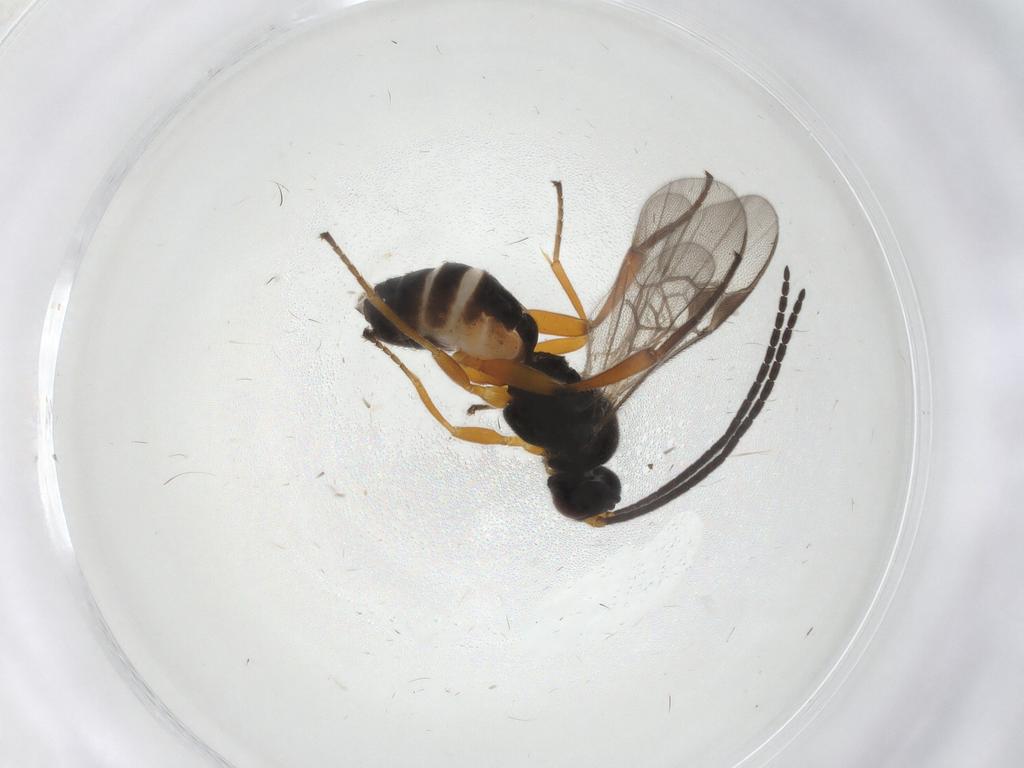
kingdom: Animalia
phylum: Arthropoda
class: Insecta
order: Hymenoptera
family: Braconidae
